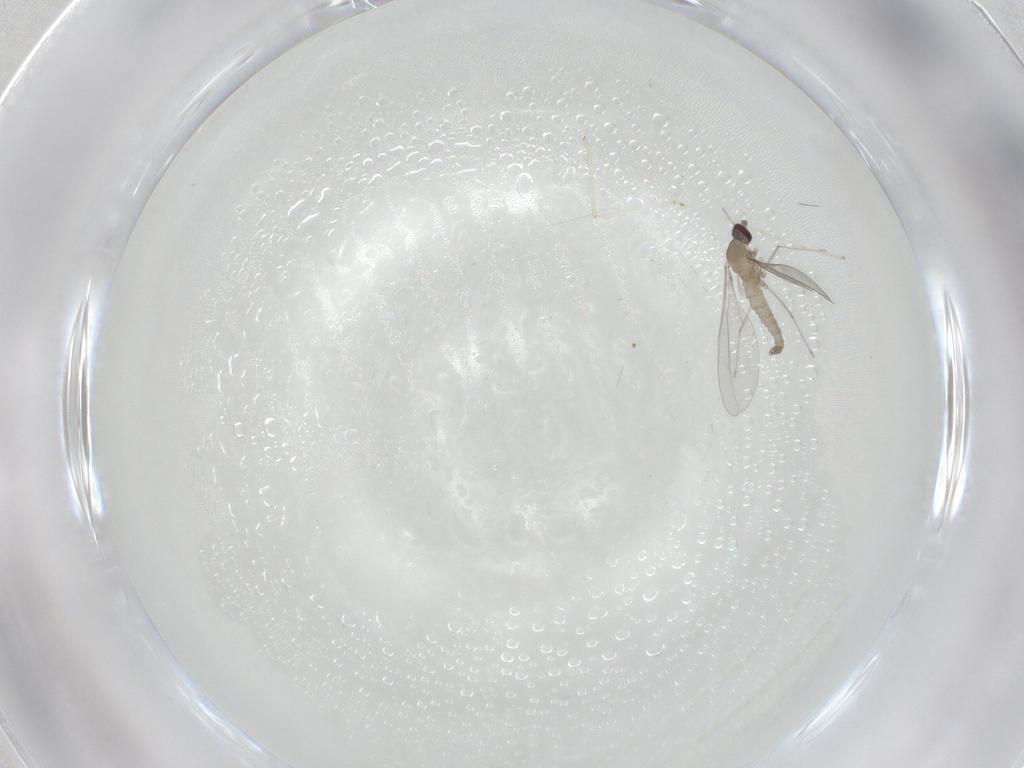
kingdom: Animalia
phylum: Arthropoda
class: Insecta
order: Diptera
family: Cecidomyiidae
